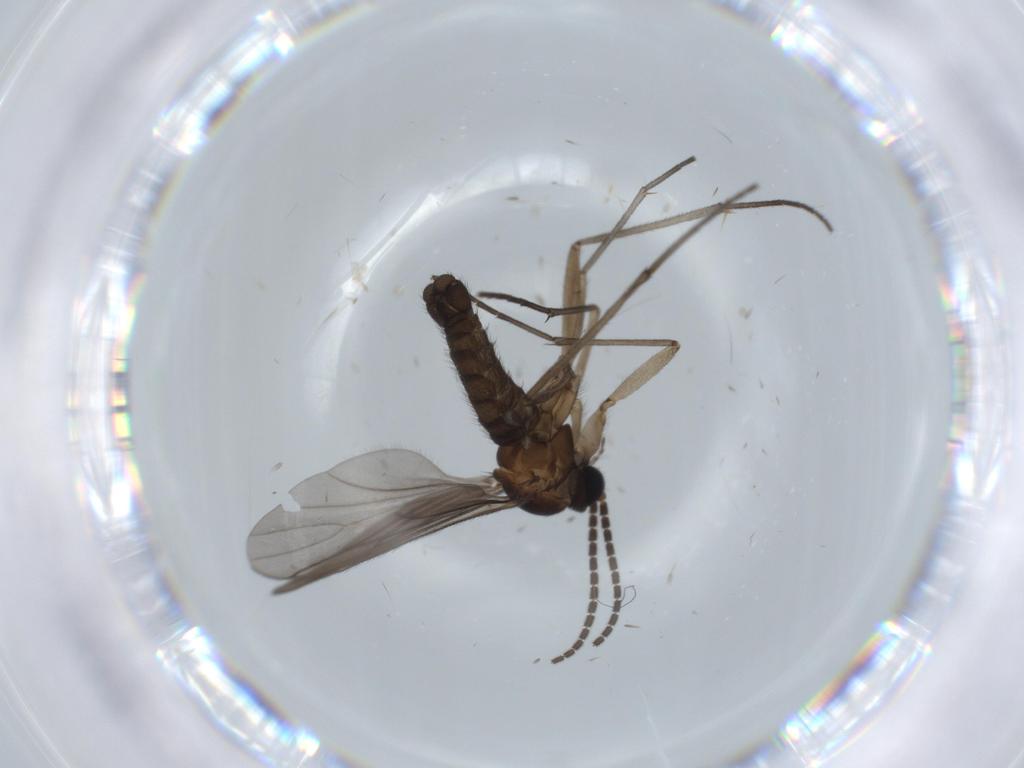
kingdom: Animalia
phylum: Arthropoda
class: Insecta
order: Diptera
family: Sciaridae
